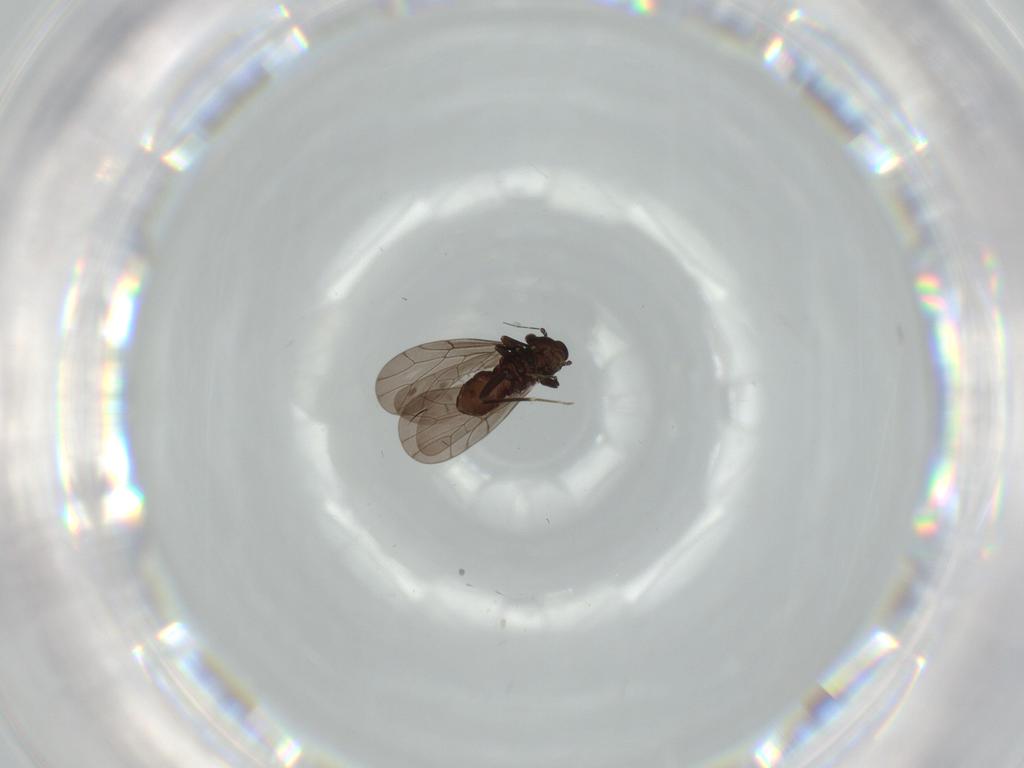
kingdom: Animalia
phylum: Arthropoda
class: Insecta
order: Psocodea
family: Lepidopsocidae
